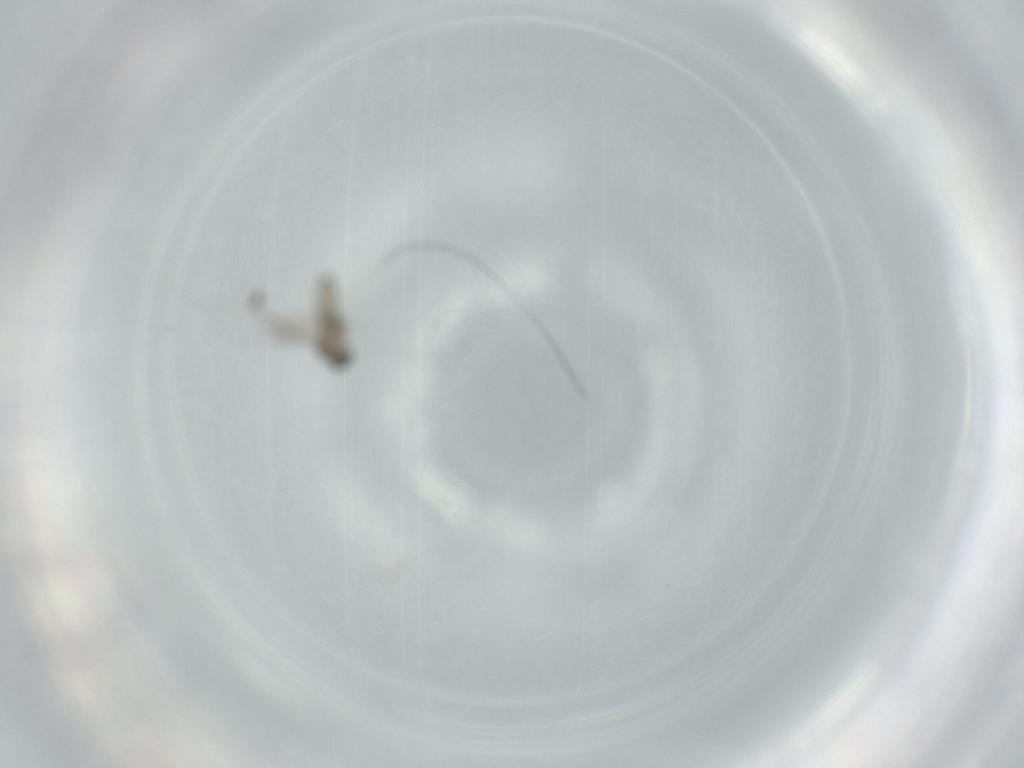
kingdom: Animalia
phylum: Arthropoda
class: Insecta
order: Diptera
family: Cecidomyiidae
